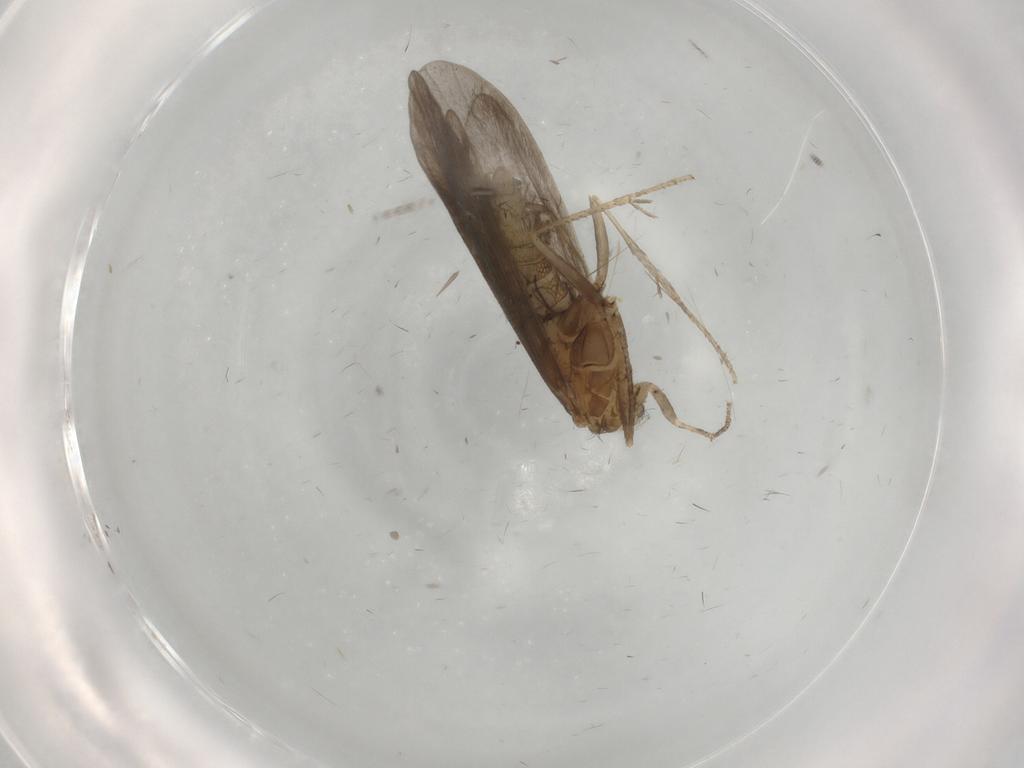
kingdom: Animalia
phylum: Arthropoda
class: Insecta
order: Trichoptera
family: Helicopsychidae
